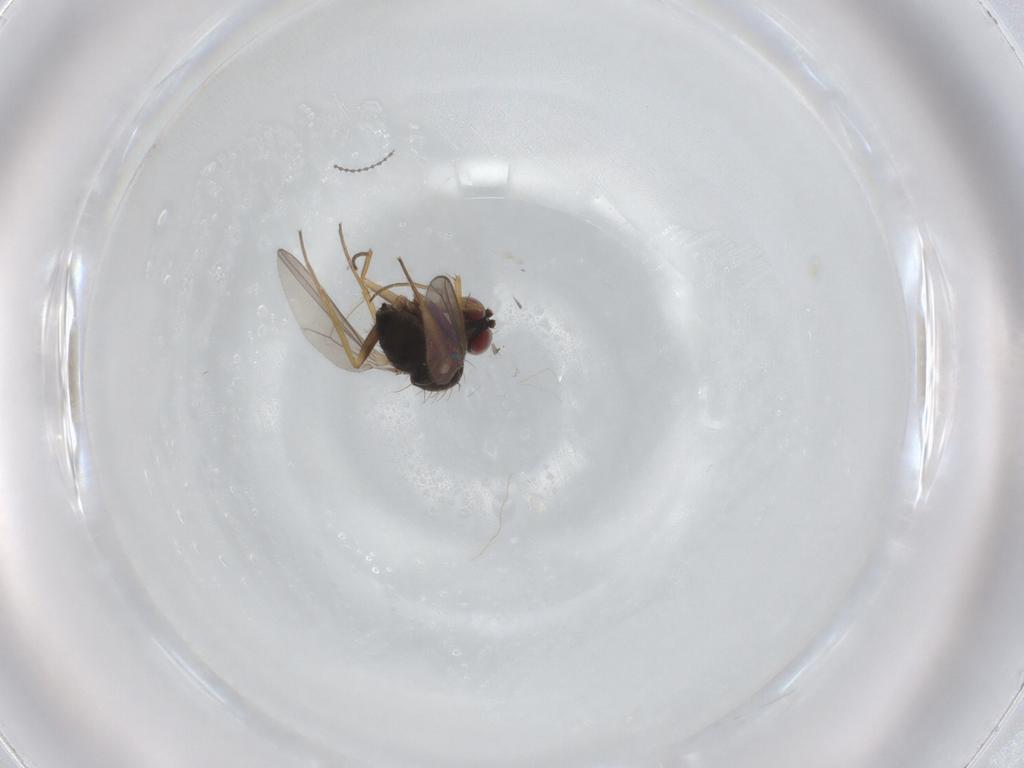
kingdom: Animalia
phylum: Arthropoda
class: Insecta
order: Diptera
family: Dolichopodidae
